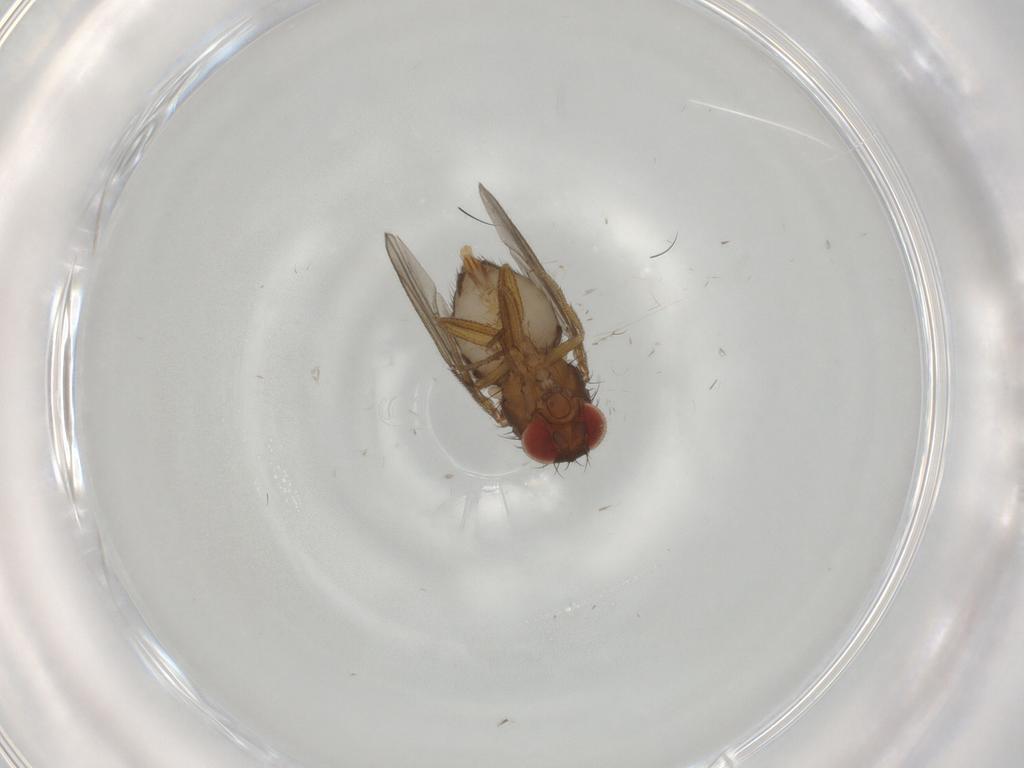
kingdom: Animalia
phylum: Arthropoda
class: Insecta
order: Diptera
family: Drosophilidae
